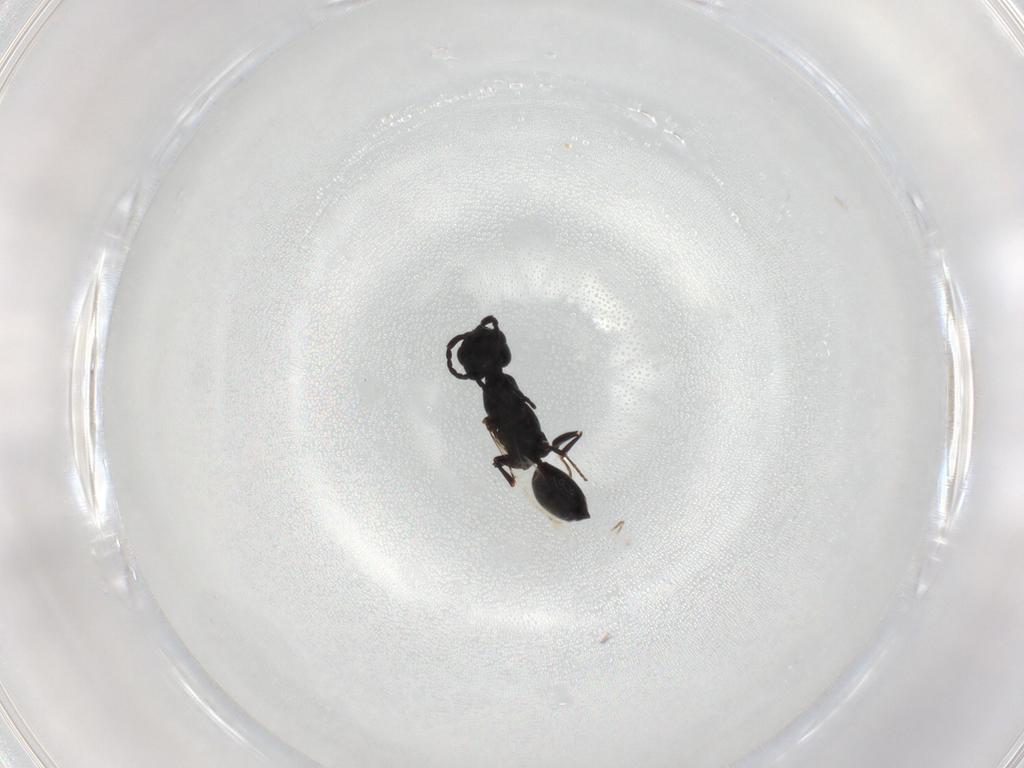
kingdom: Animalia
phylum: Arthropoda
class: Insecta
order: Hymenoptera
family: Bethylidae
